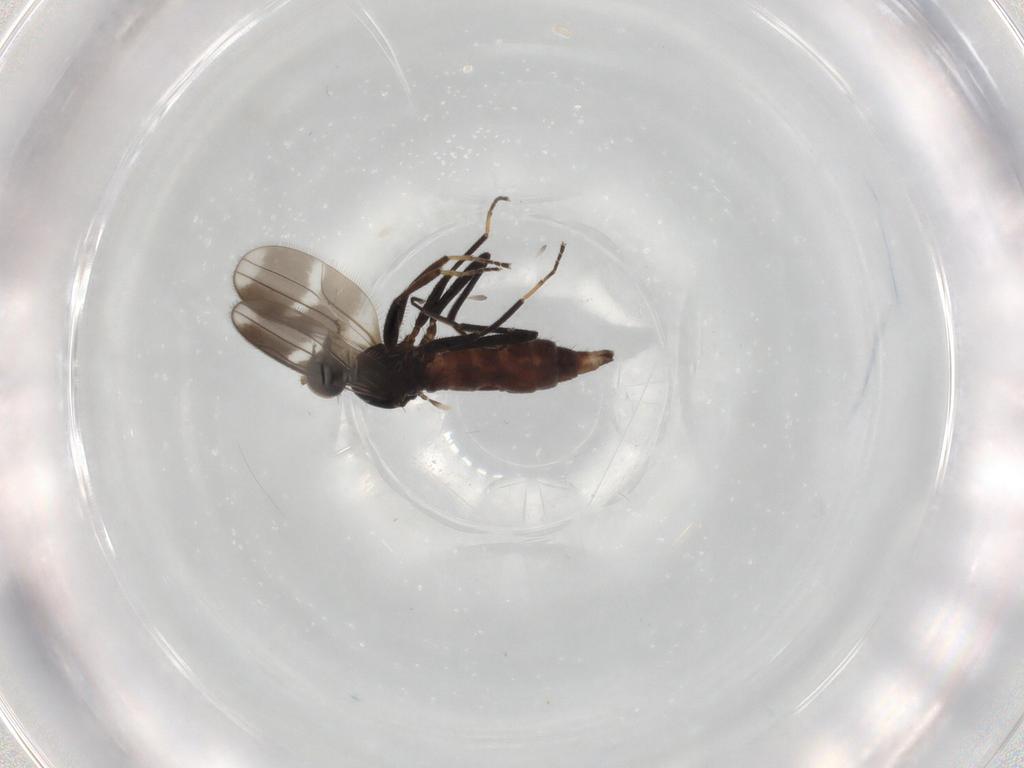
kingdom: Animalia
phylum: Arthropoda
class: Insecta
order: Diptera
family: Hybotidae
